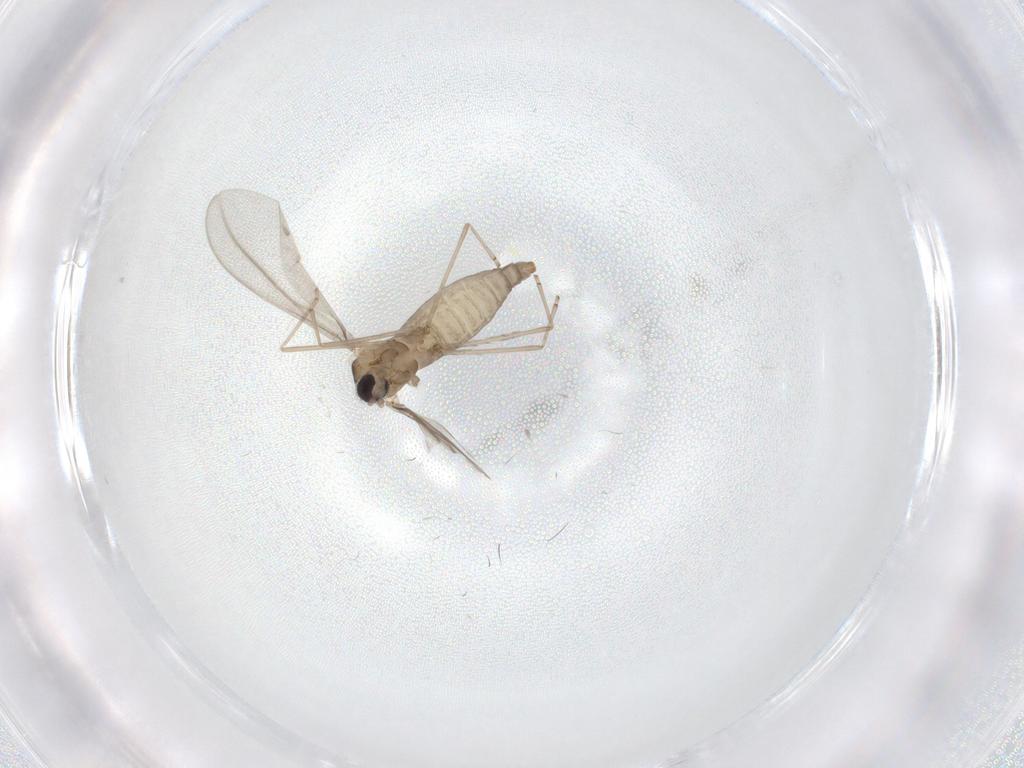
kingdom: Animalia
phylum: Arthropoda
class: Insecta
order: Diptera
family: Cecidomyiidae
